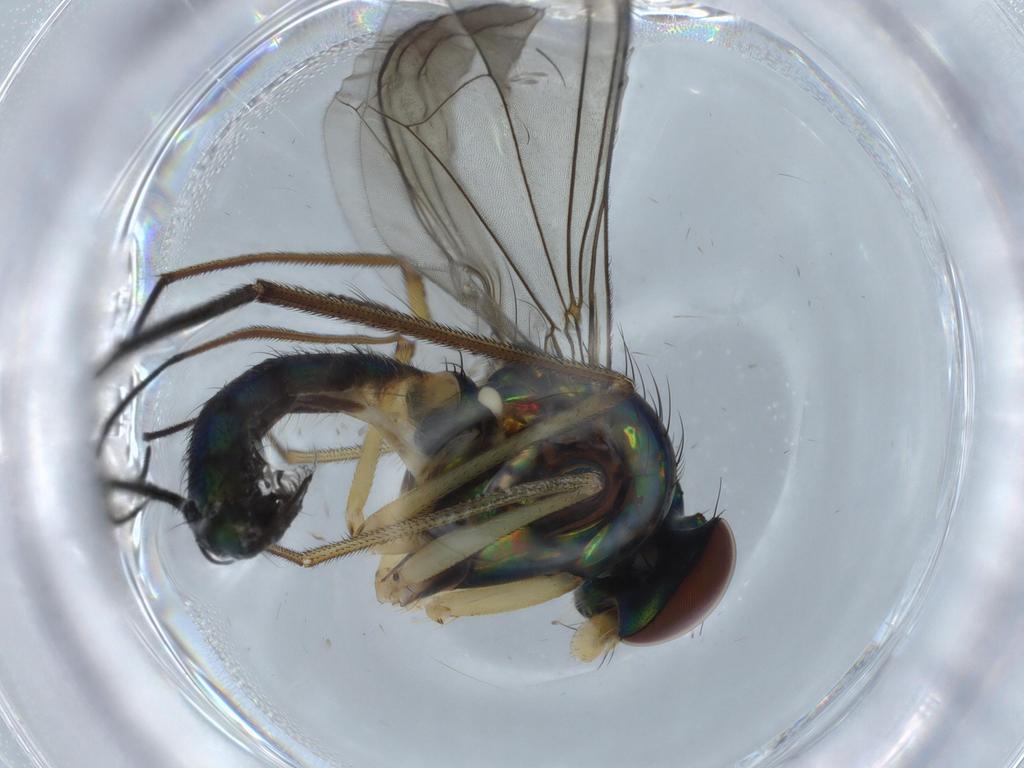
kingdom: Animalia
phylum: Arthropoda
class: Insecta
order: Diptera
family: Dolichopodidae
